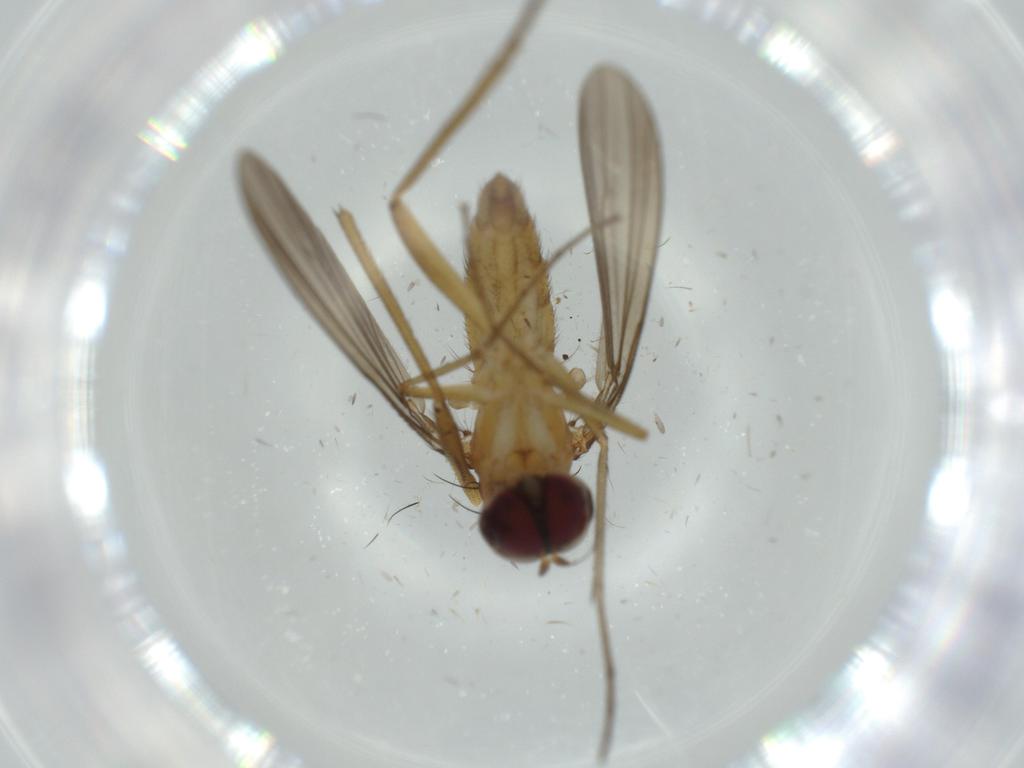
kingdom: Animalia
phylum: Arthropoda
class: Insecta
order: Diptera
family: Dolichopodidae
